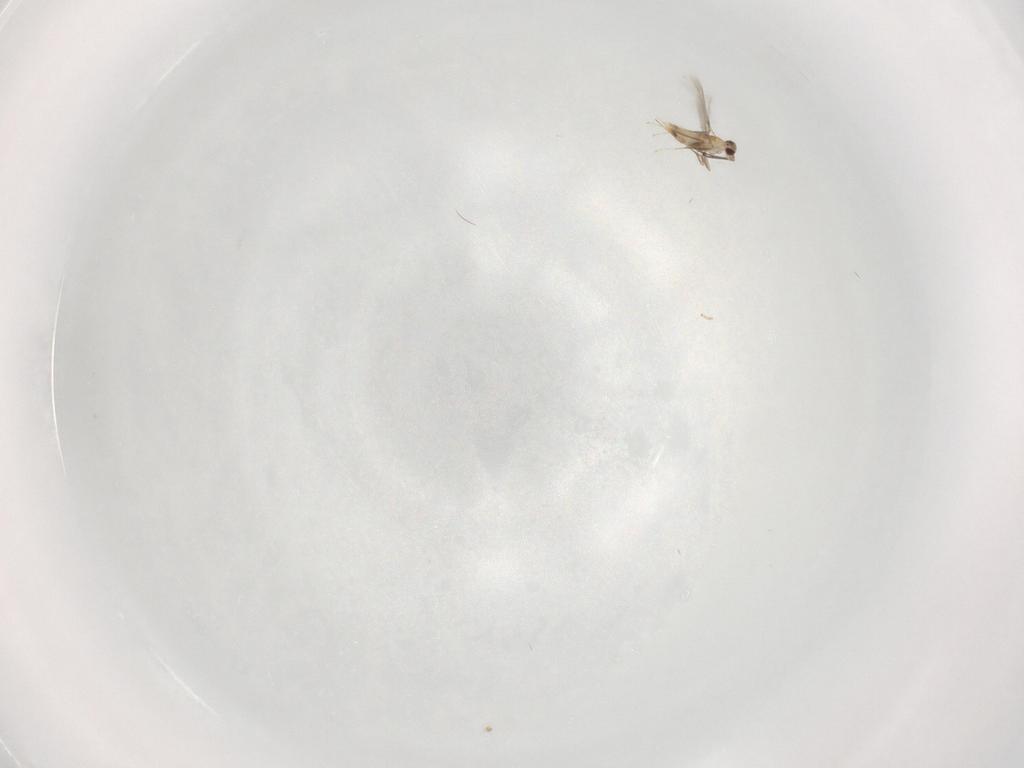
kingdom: Animalia
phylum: Arthropoda
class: Insecta
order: Hymenoptera
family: Mymaridae
